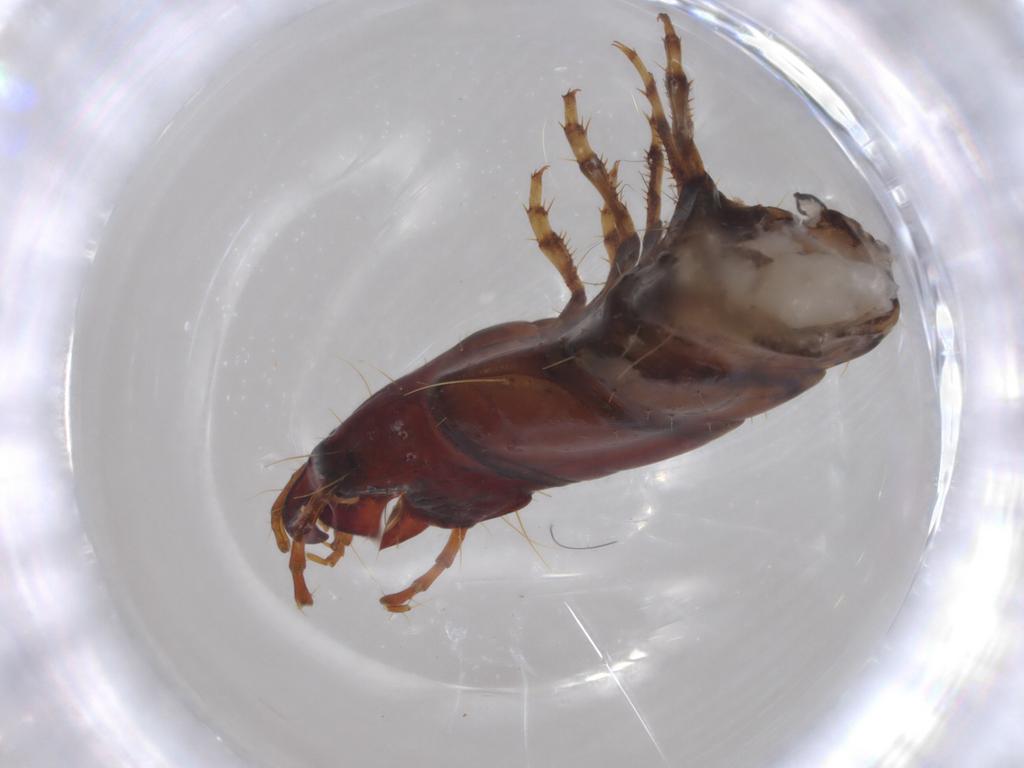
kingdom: Animalia
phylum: Arthropoda
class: Insecta
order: Coleoptera
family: Carabidae
